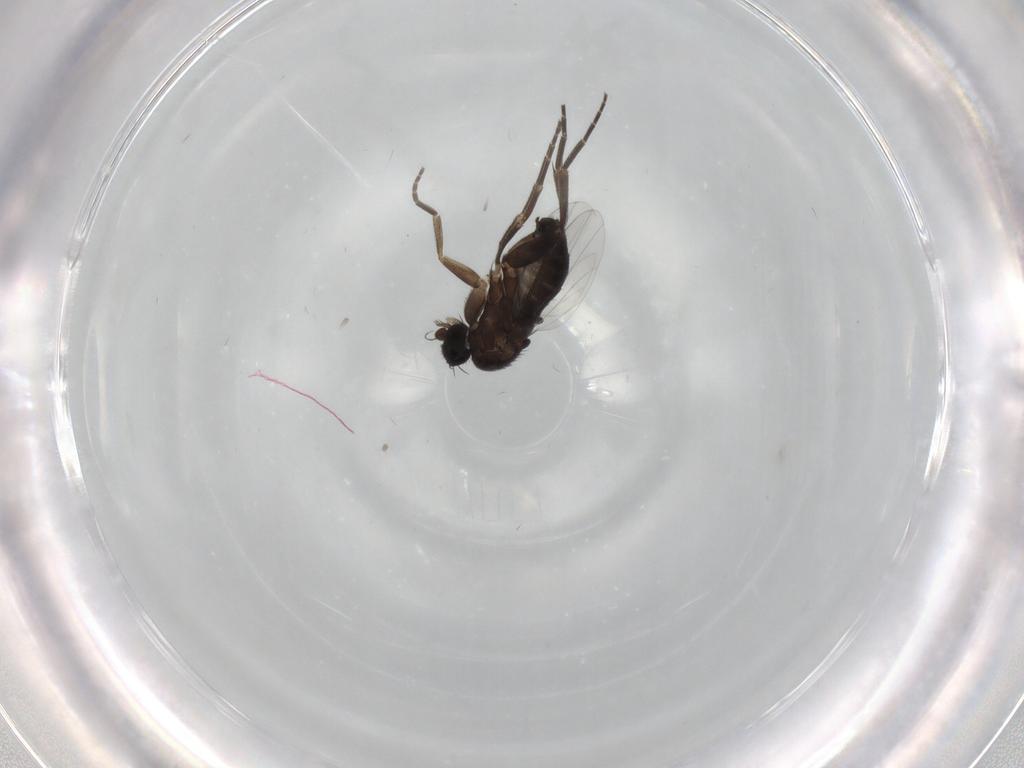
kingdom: Animalia
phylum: Arthropoda
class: Insecta
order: Diptera
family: Phoridae
